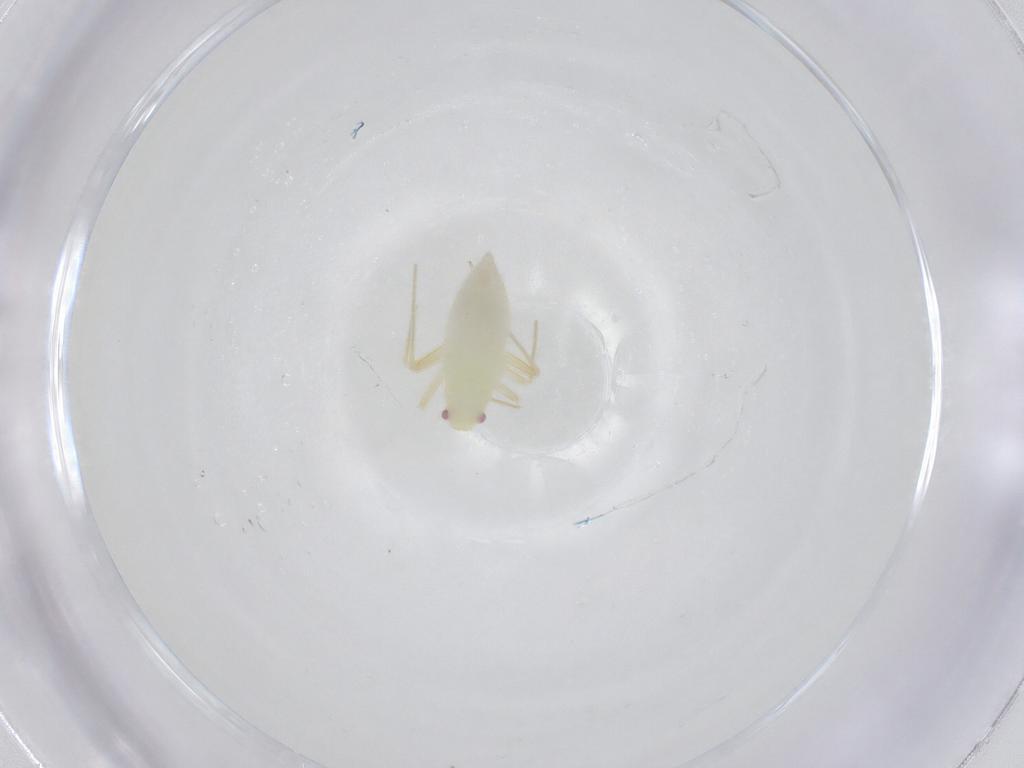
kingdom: Animalia
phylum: Arthropoda
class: Insecta
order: Hemiptera
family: Miridae
